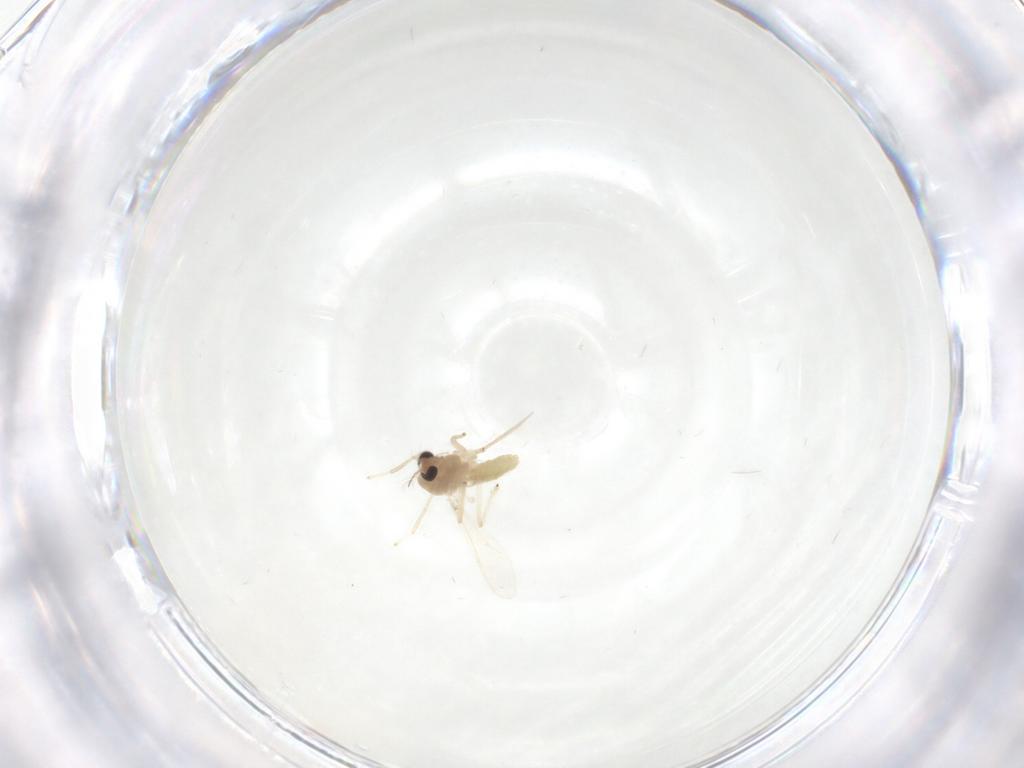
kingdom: Animalia
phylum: Arthropoda
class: Insecta
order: Diptera
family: Chironomidae
